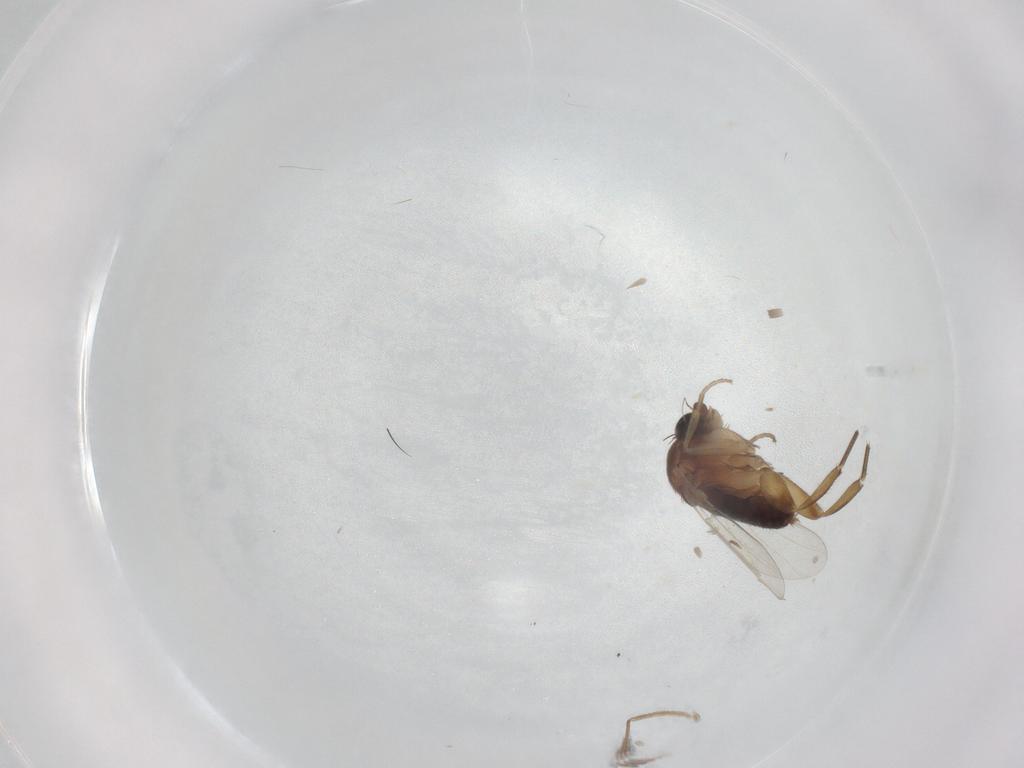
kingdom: Animalia
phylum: Arthropoda
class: Insecta
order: Diptera
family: Phoridae
